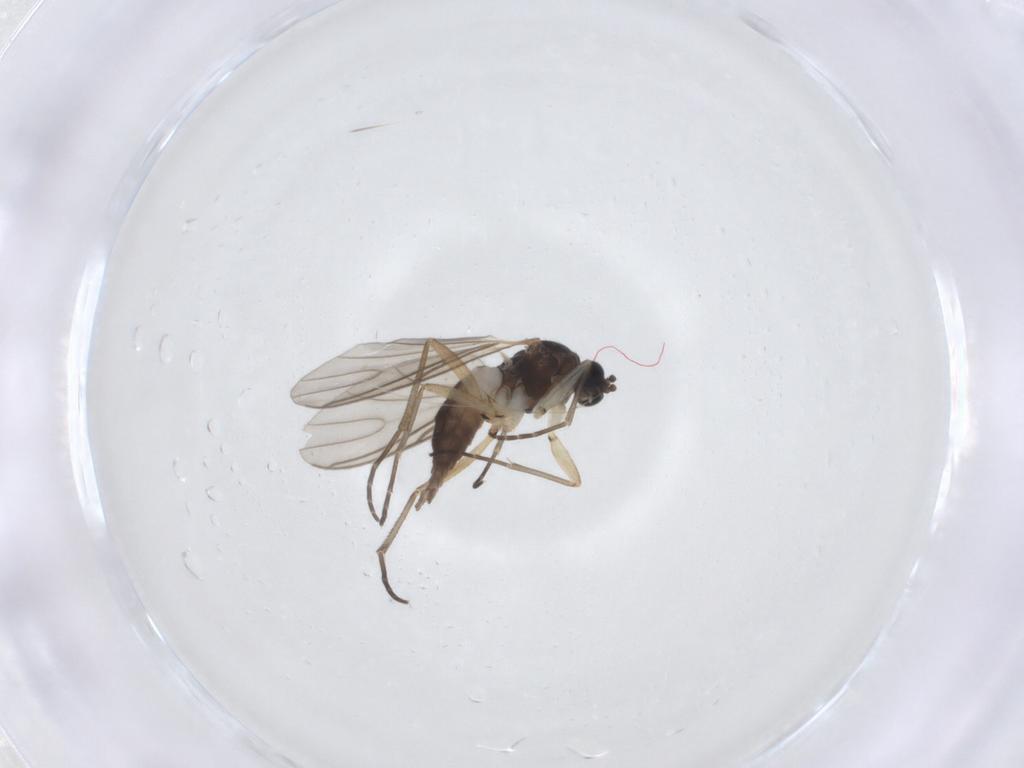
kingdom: Animalia
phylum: Arthropoda
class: Insecta
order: Diptera
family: Sciaridae
